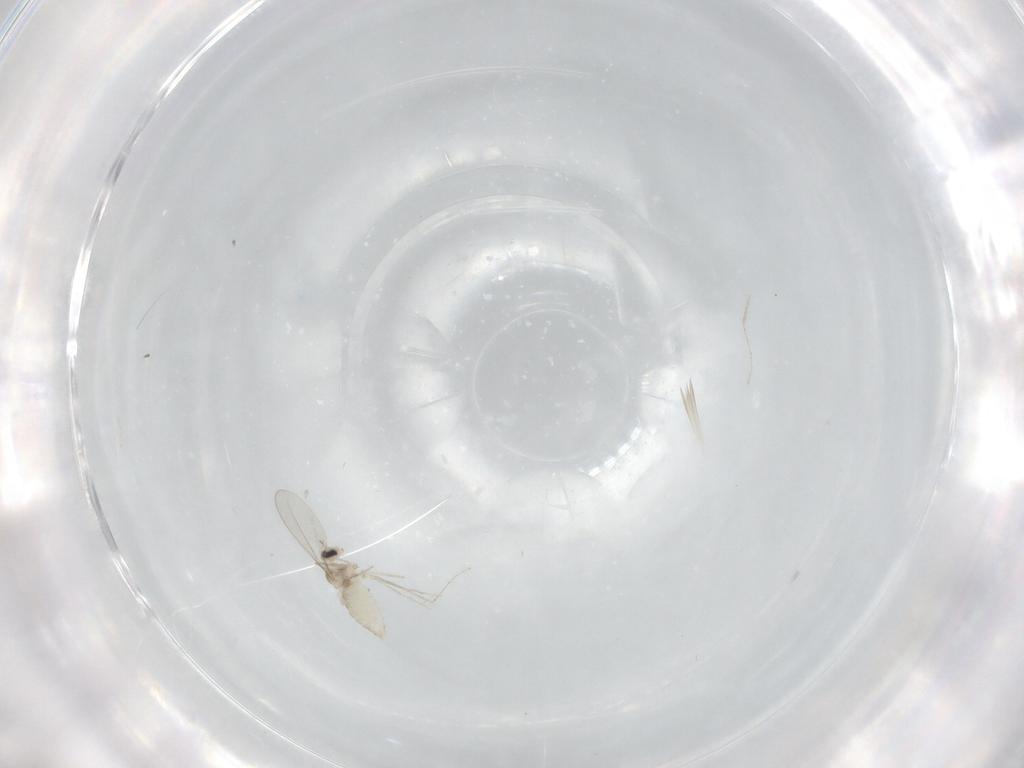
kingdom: Animalia
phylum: Arthropoda
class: Insecta
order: Diptera
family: Cecidomyiidae
